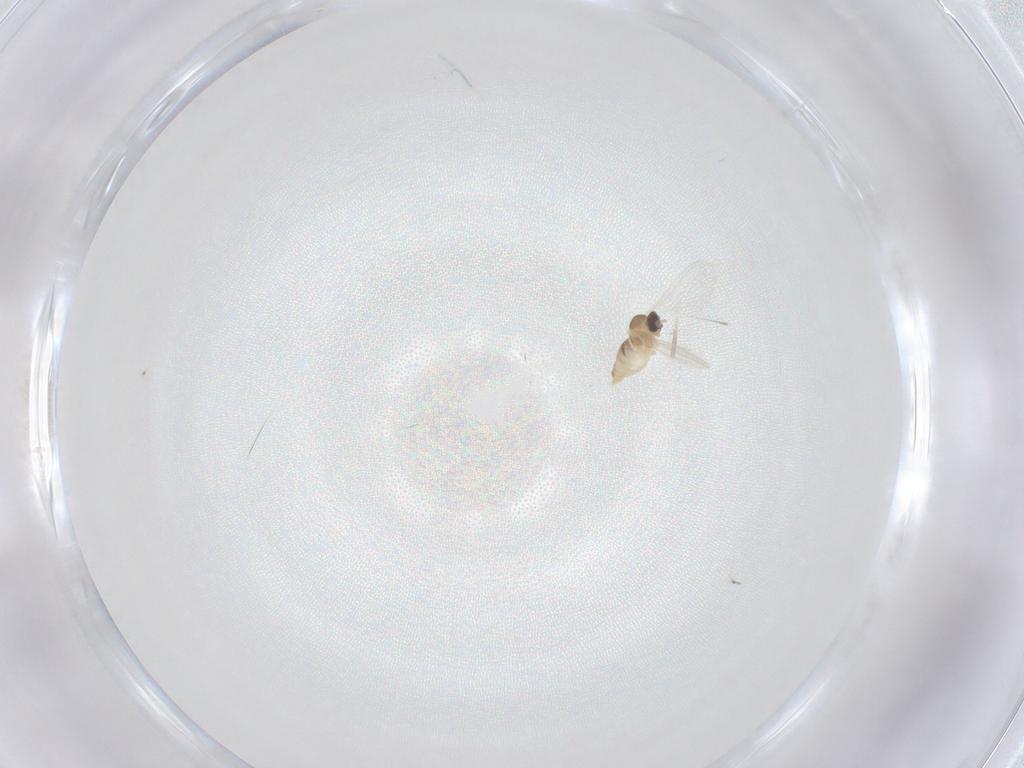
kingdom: Animalia
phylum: Arthropoda
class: Insecta
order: Diptera
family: Cecidomyiidae
